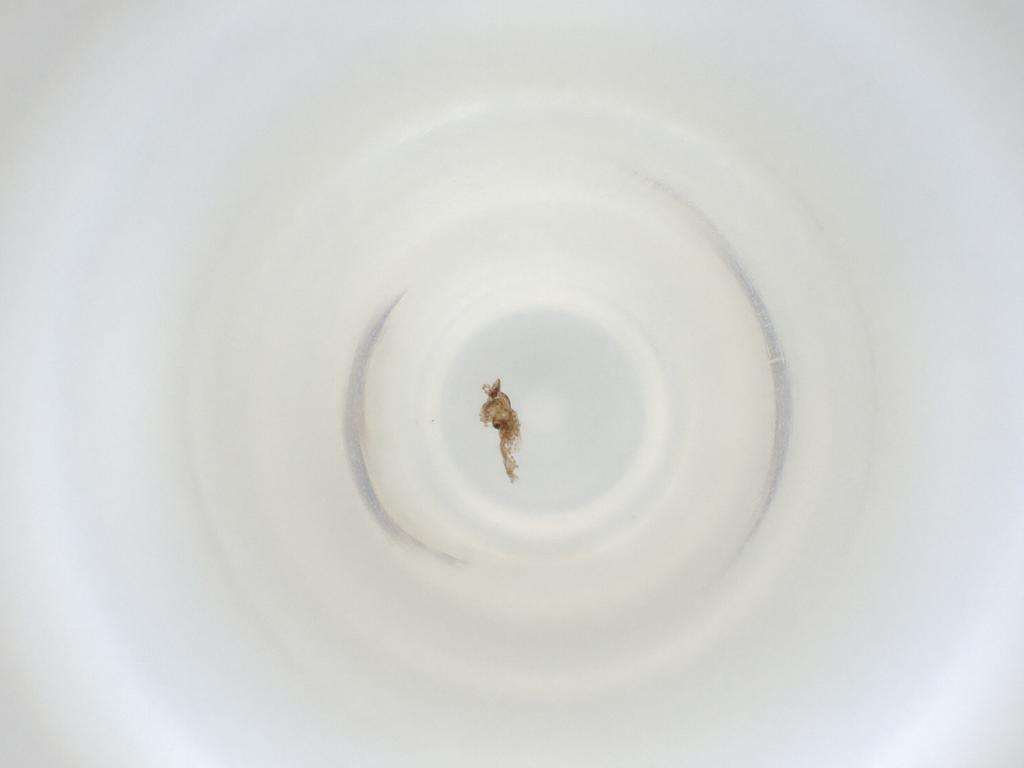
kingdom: Animalia
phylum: Arthropoda
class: Insecta
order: Diptera
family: Cecidomyiidae
